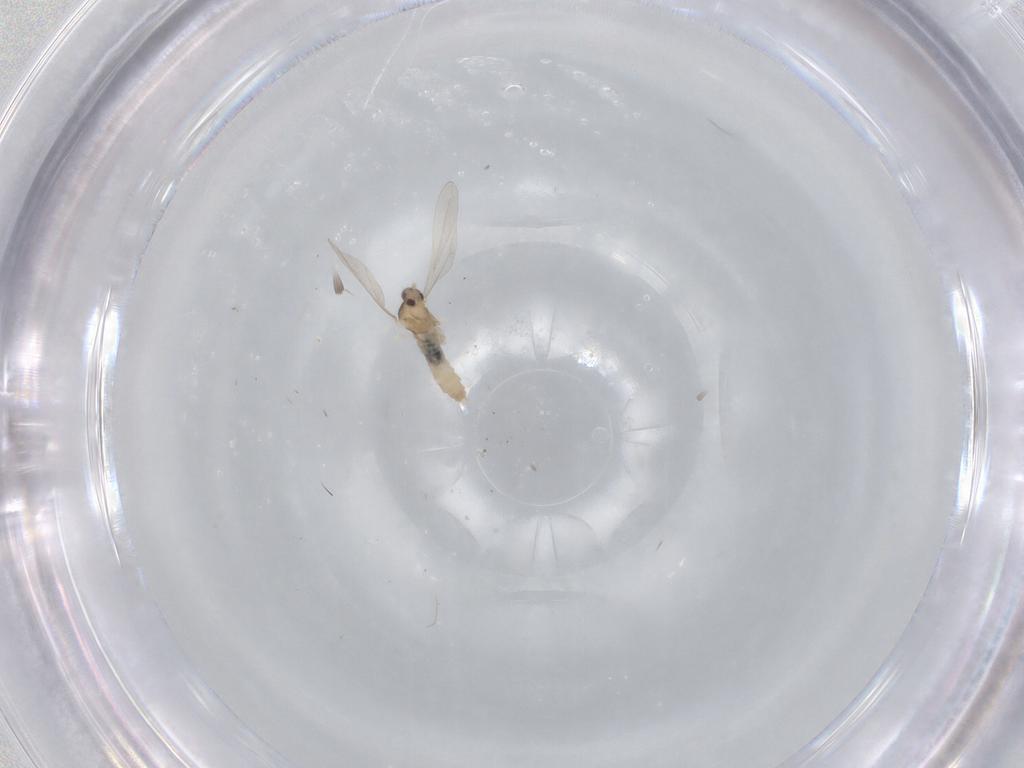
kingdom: Animalia
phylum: Arthropoda
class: Insecta
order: Diptera
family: Cecidomyiidae
